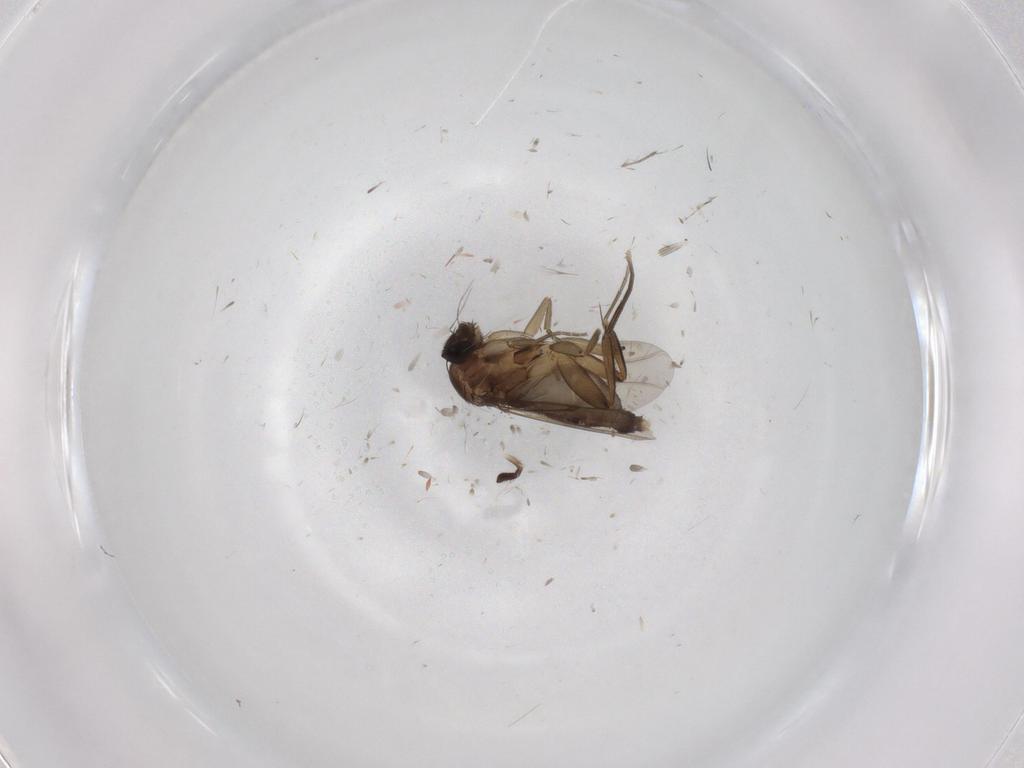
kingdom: Animalia
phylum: Arthropoda
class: Insecta
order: Diptera
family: Phoridae
